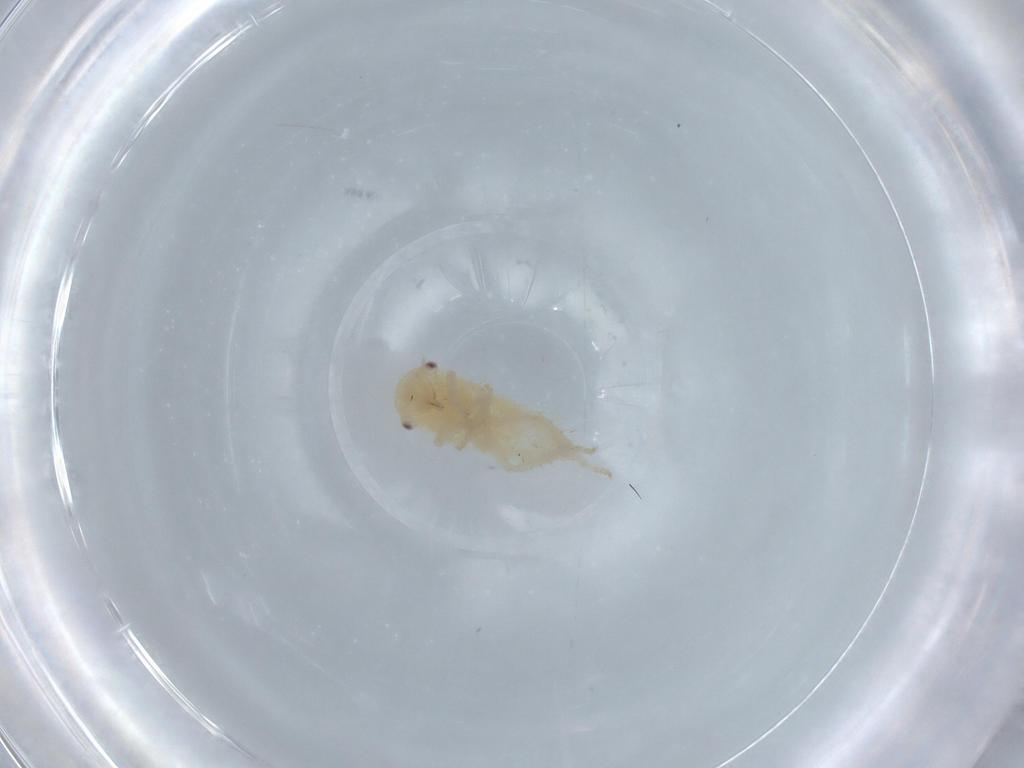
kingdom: Animalia
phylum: Arthropoda
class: Insecta
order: Hemiptera
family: Cicadellidae
